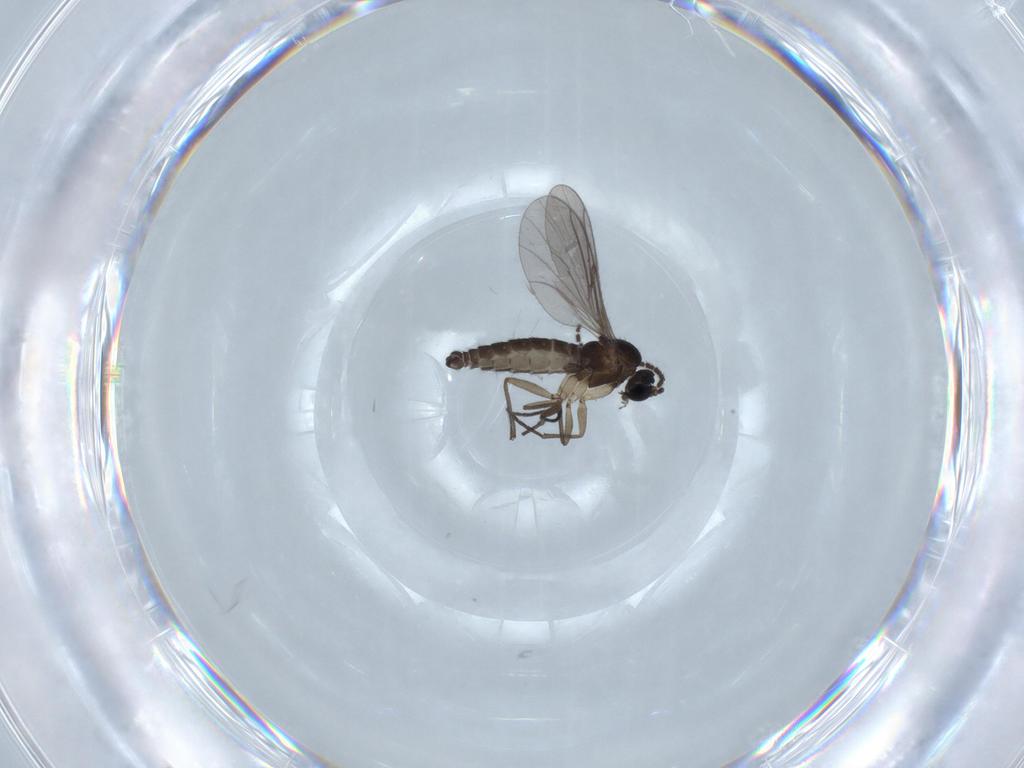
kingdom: Animalia
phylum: Arthropoda
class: Insecta
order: Diptera
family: Sciaridae
